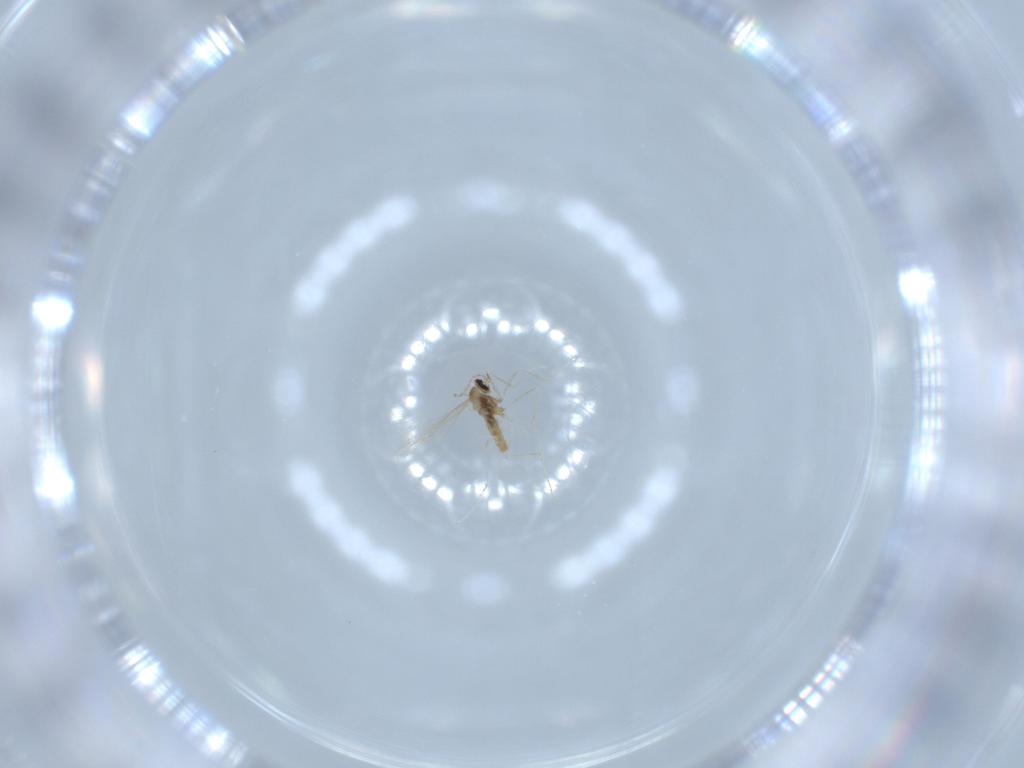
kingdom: Animalia
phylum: Arthropoda
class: Insecta
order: Diptera
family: Cecidomyiidae
